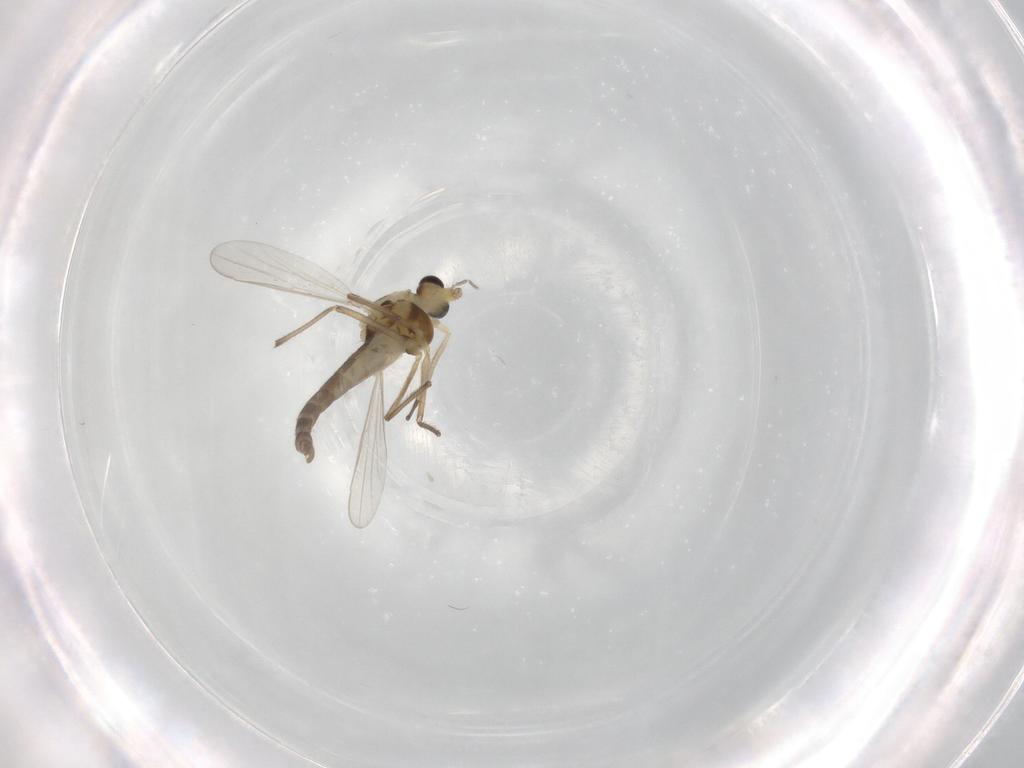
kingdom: Animalia
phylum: Arthropoda
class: Insecta
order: Diptera
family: Chironomidae
